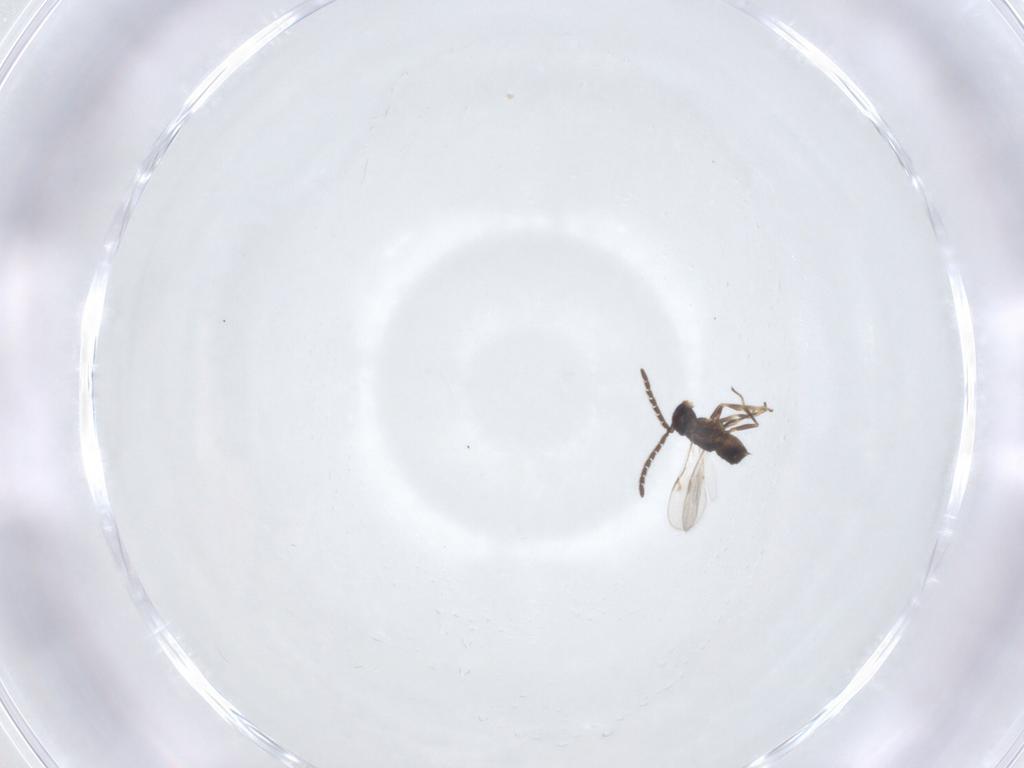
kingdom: Animalia
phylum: Arthropoda
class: Insecta
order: Hymenoptera
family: Encyrtidae
